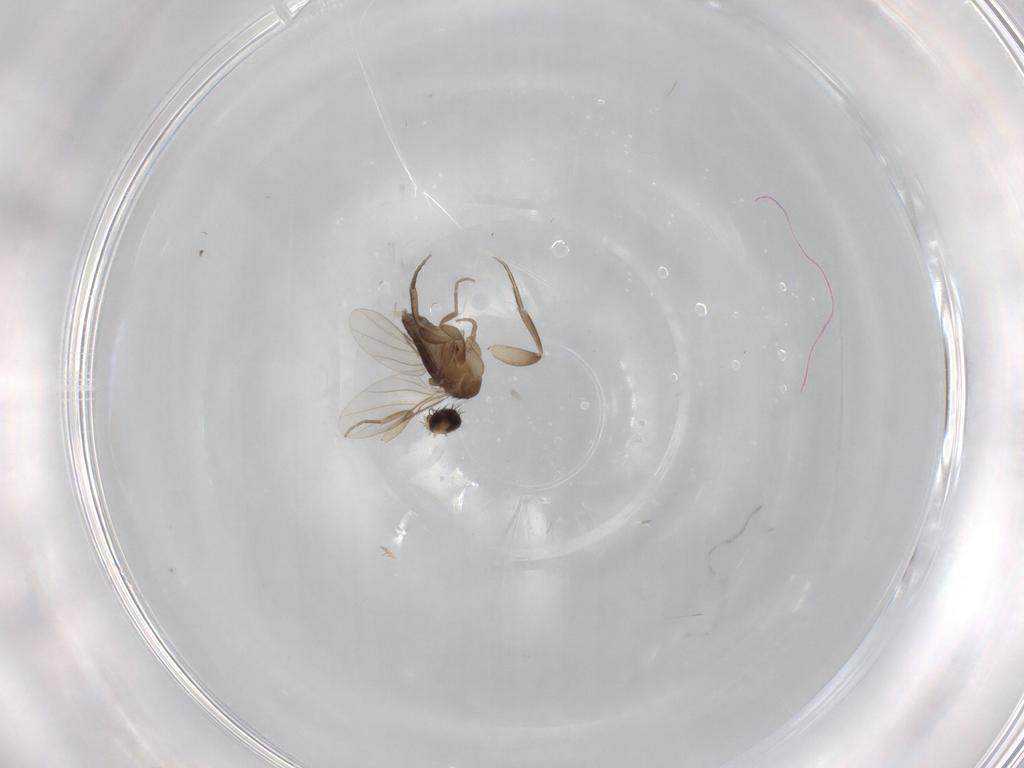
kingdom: Animalia
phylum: Arthropoda
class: Insecta
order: Diptera
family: Phoridae
